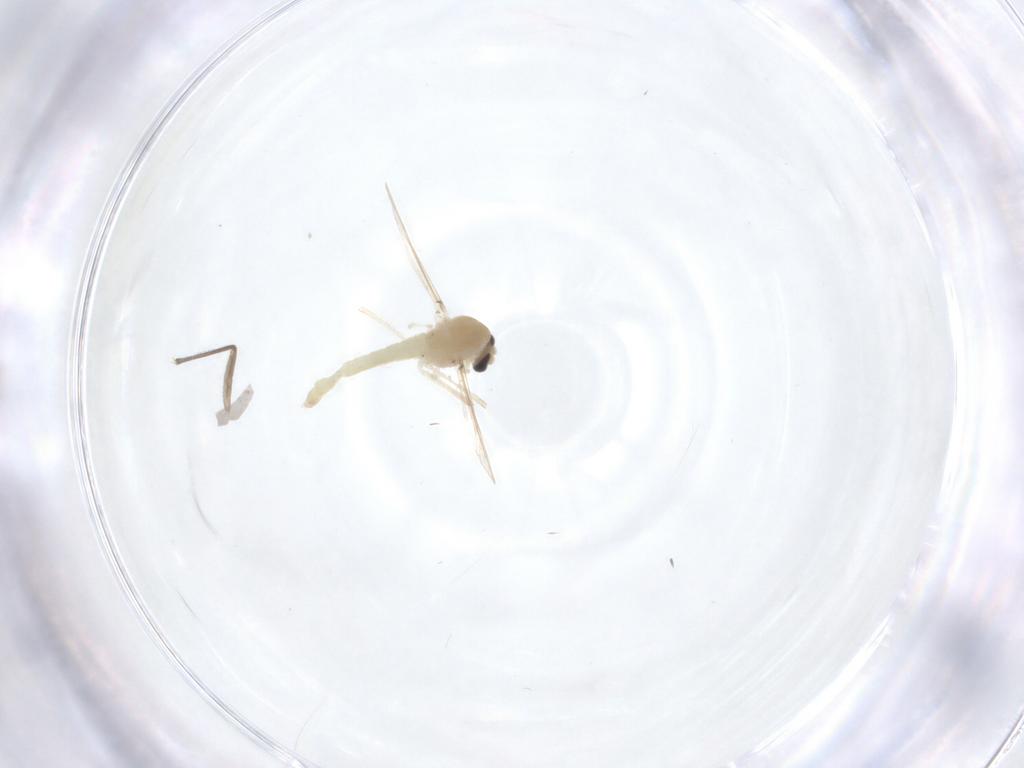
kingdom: Animalia
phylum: Arthropoda
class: Insecta
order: Diptera
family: Chironomidae
